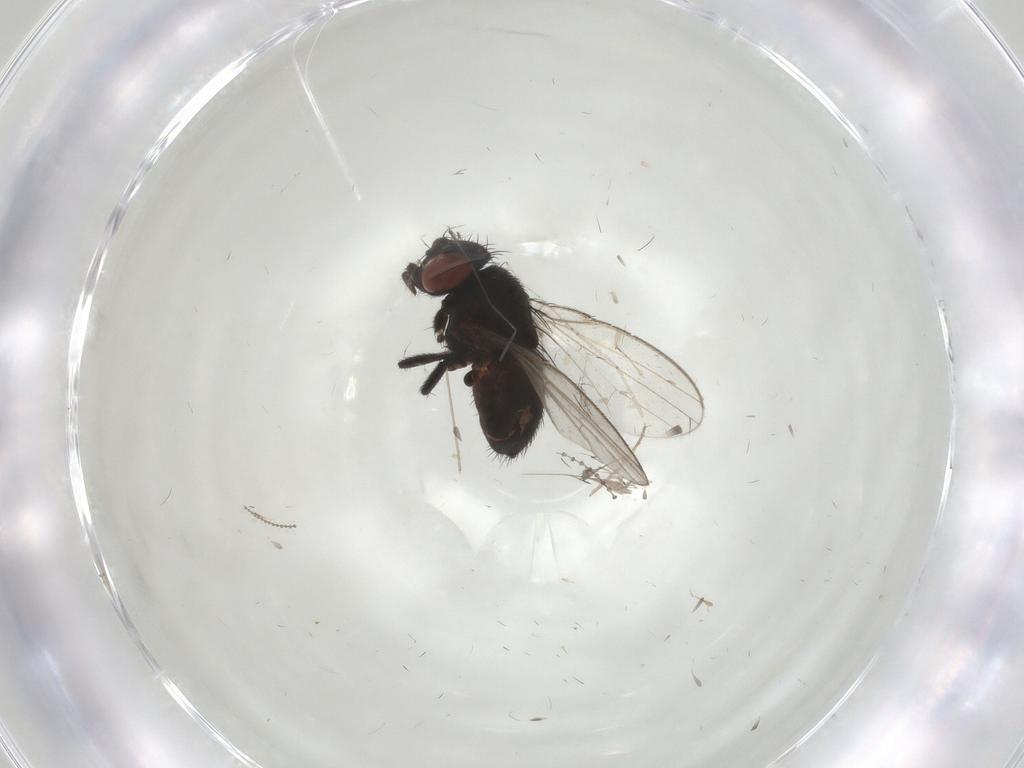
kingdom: Animalia
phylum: Arthropoda
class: Insecta
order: Diptera
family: Cecidomyiidae
